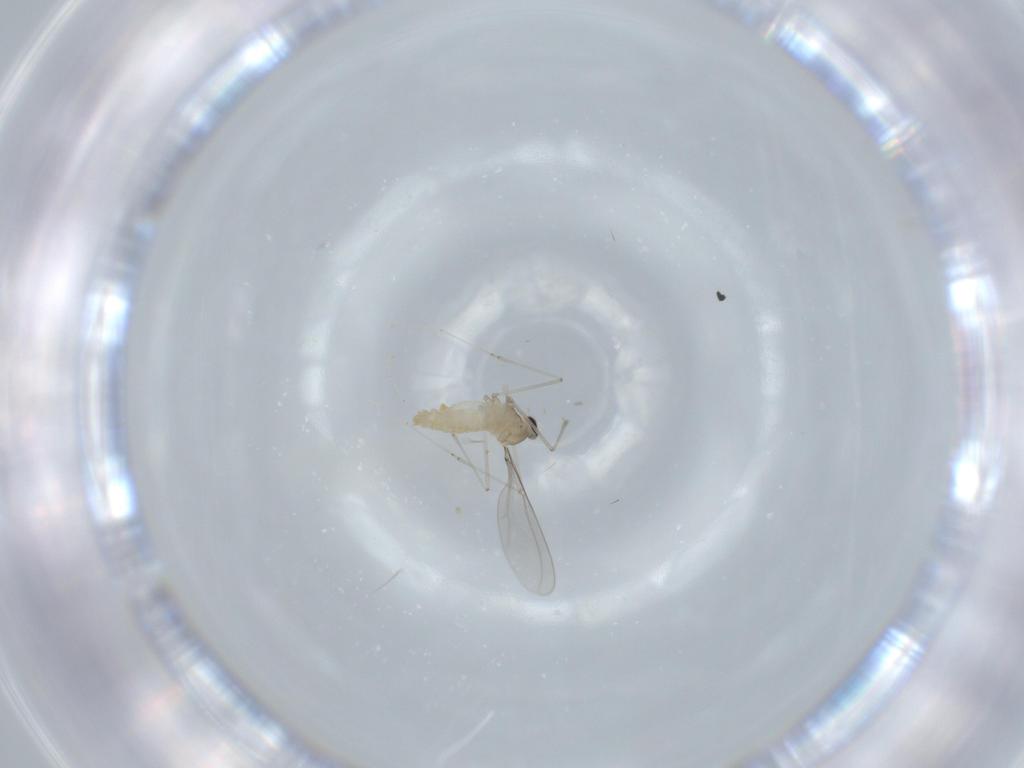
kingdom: Animalia
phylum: Arthropoda
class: Insecta
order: Diptera
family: Cecidomyiidae
